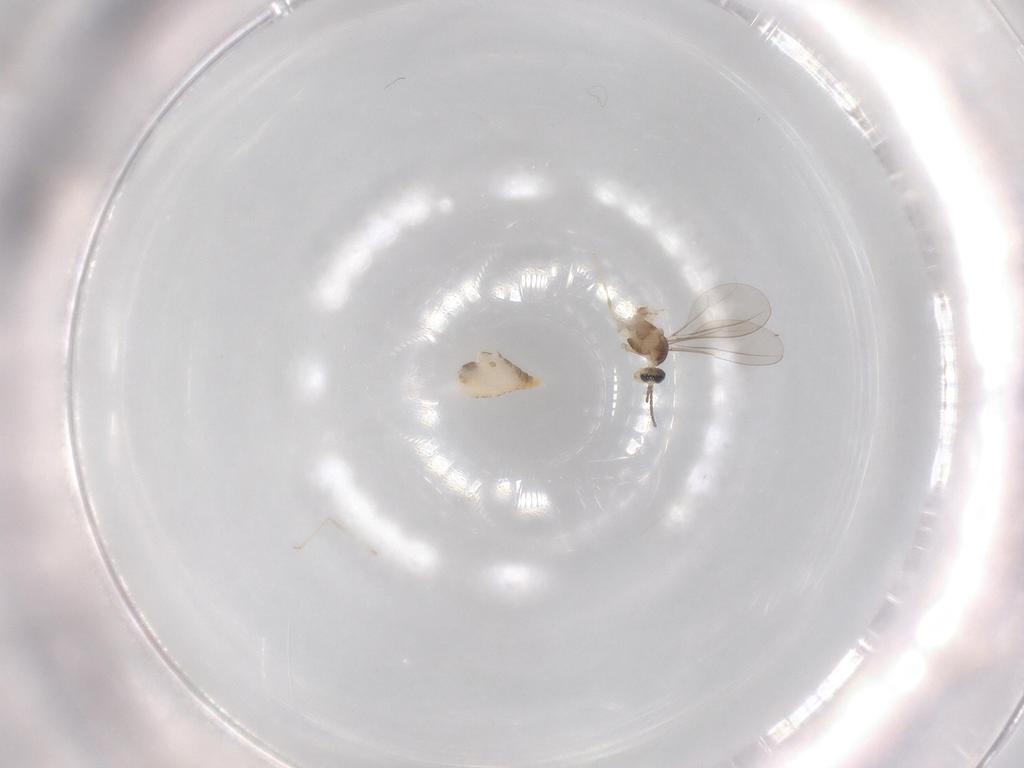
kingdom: Animalia
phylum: Arthropoda
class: Insecta
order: Diptera
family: Cecidomyiidae
